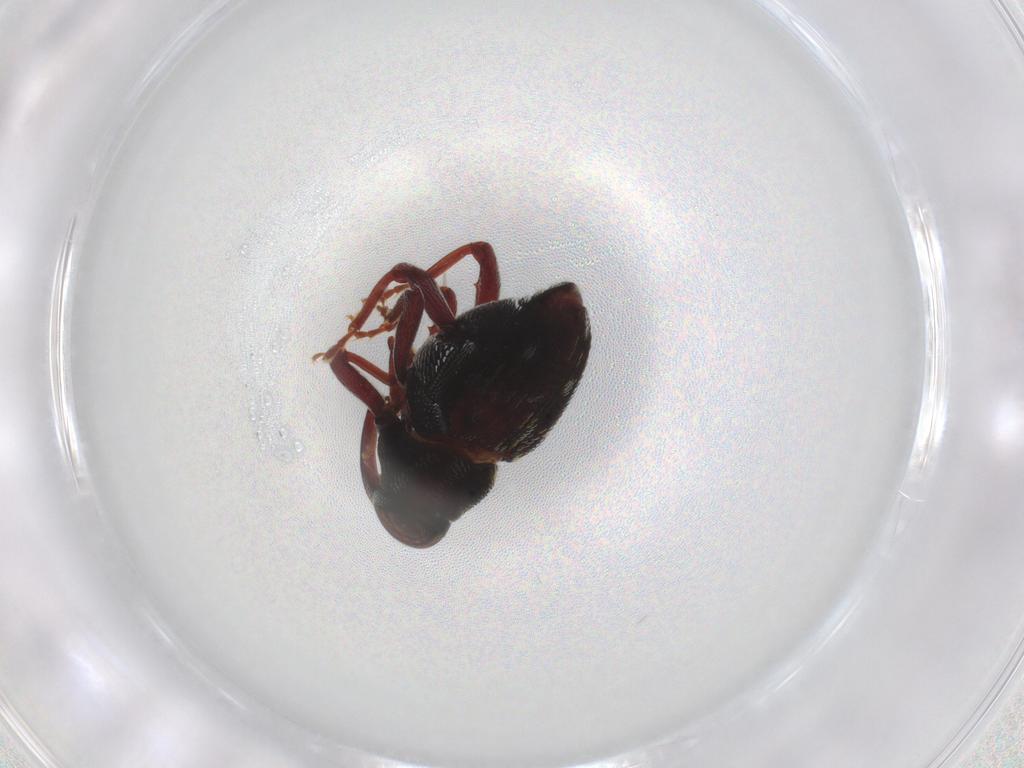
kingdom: Animalia
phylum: Arthropoda
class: Insecta
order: Coleoptera
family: Curculionidae
